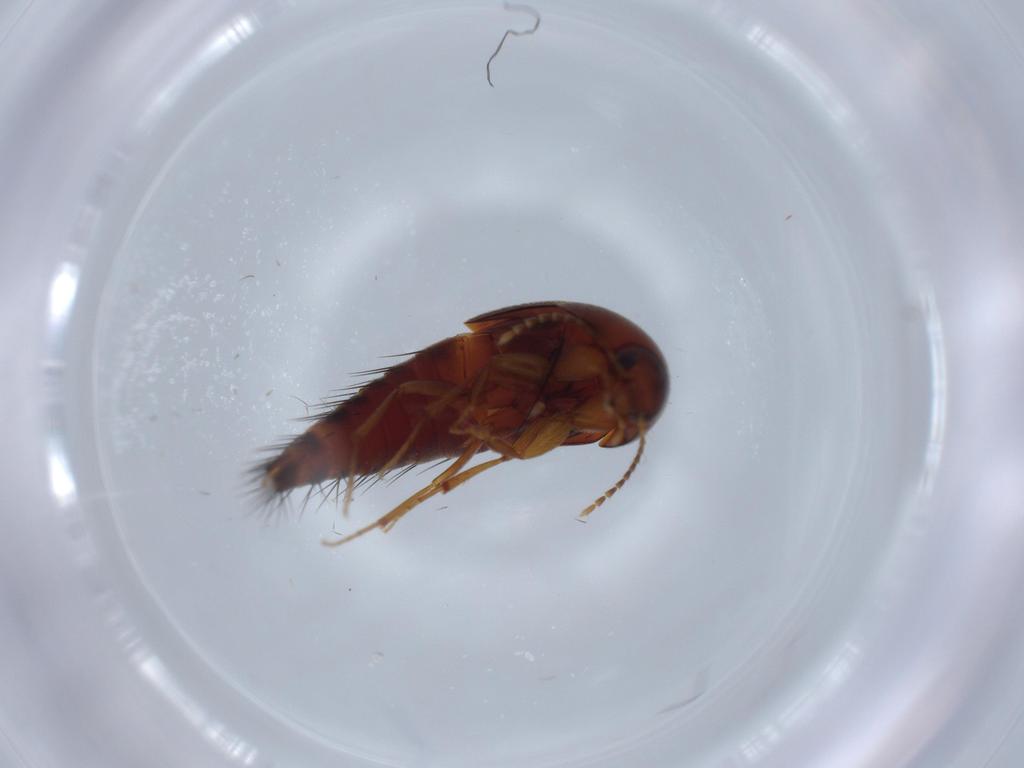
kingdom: Animalia
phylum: Arthropoda
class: Insecta
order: Coleoptera
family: Staphylinidae
